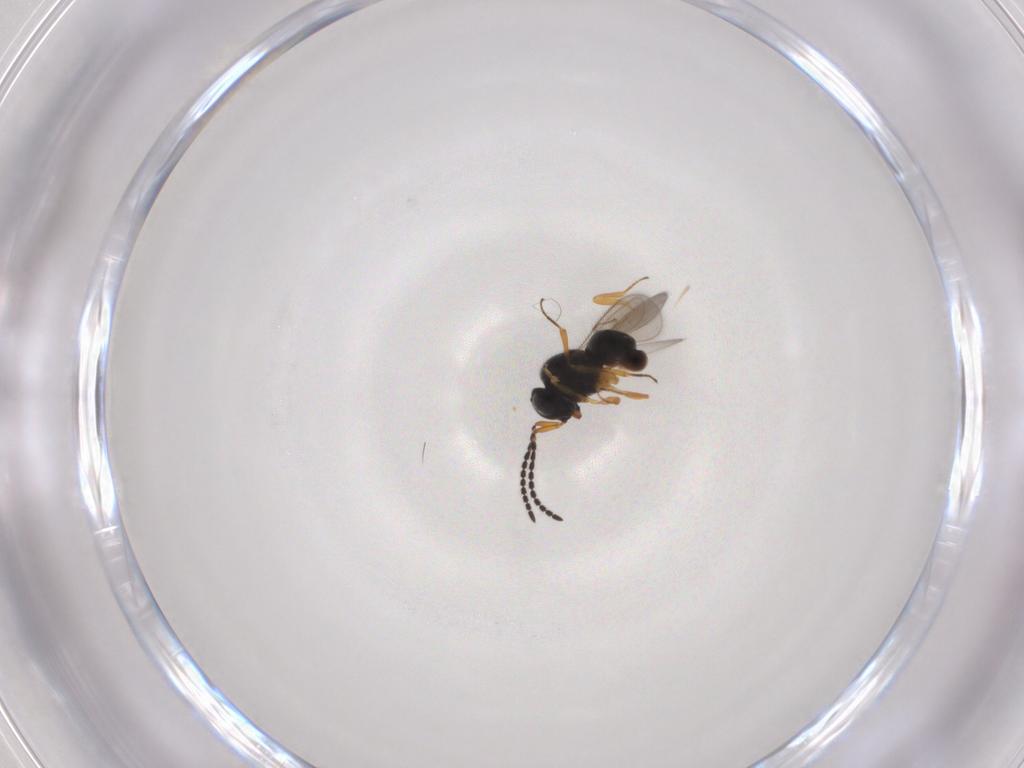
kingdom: Animalia
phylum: Arthropoda
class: Insecta
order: Hymenoptera
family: Scelionidae
